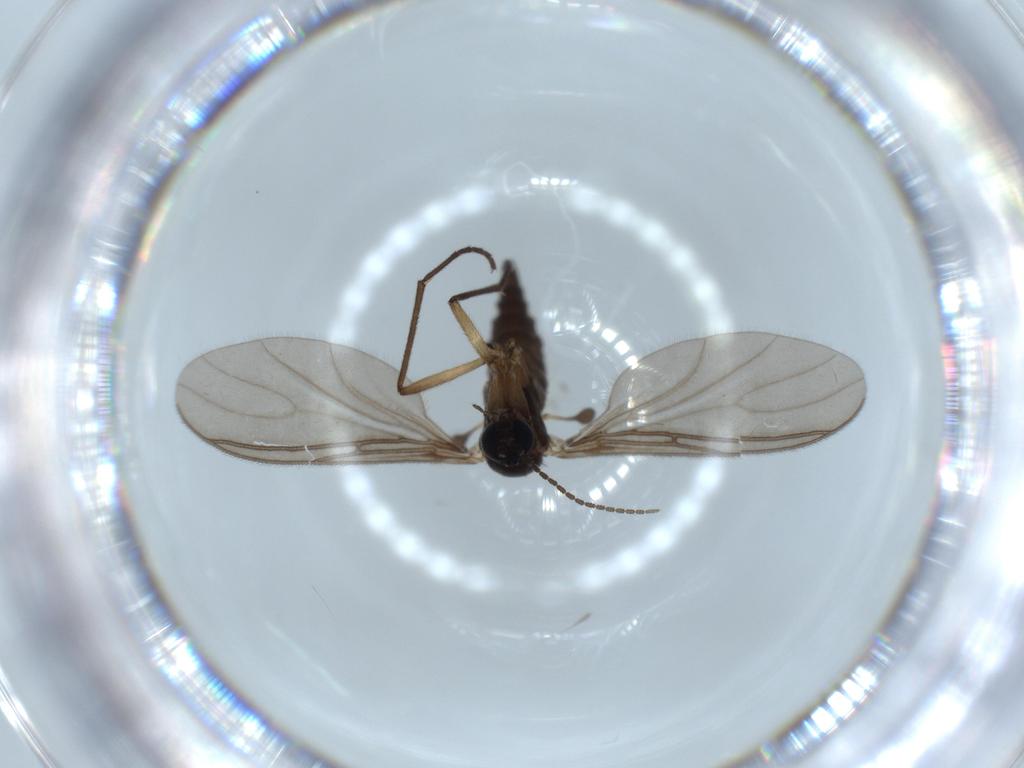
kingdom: Animalia
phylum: Arthropoda
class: Insecta
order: Diptera
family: Sciaridae
